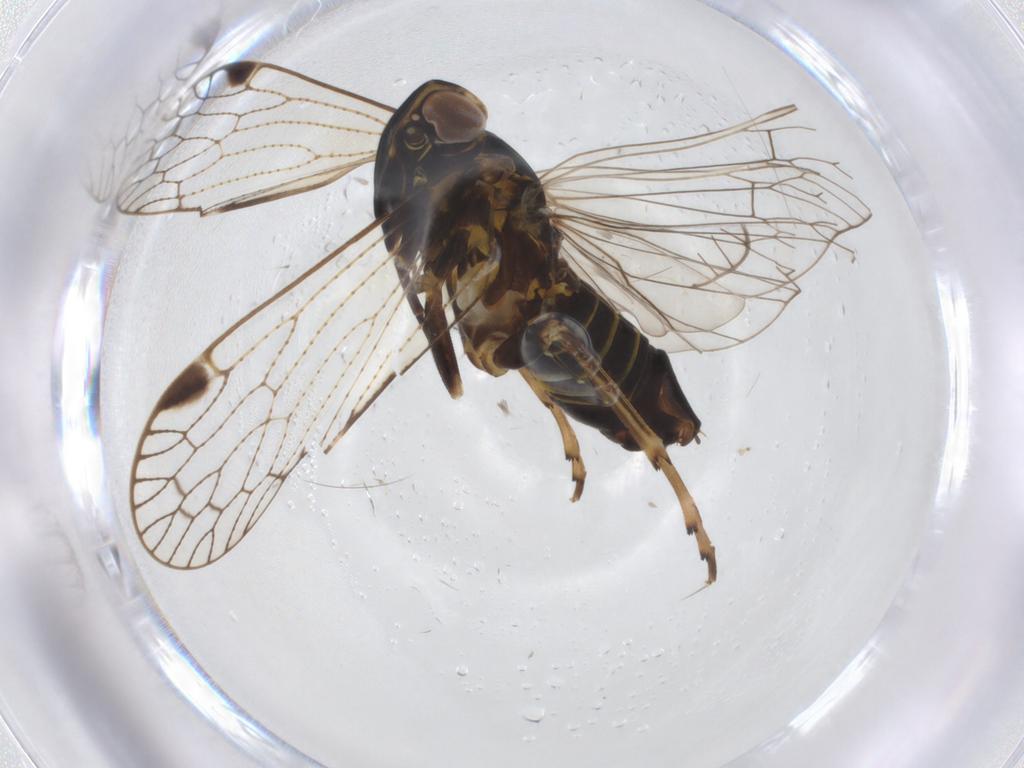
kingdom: Animalia
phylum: Arthropoda
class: Insecta
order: Hemiptera
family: Cixiidae
